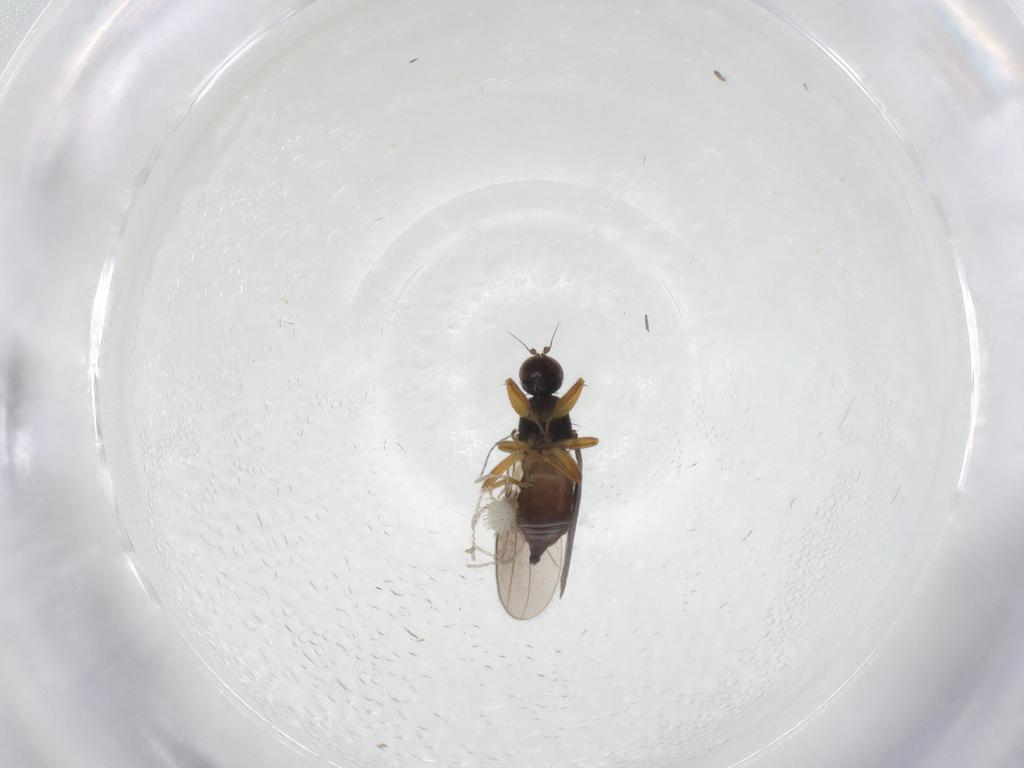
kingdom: Animalia
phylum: Arthropoda
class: Insecta
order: Diptera
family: Hybotidae
